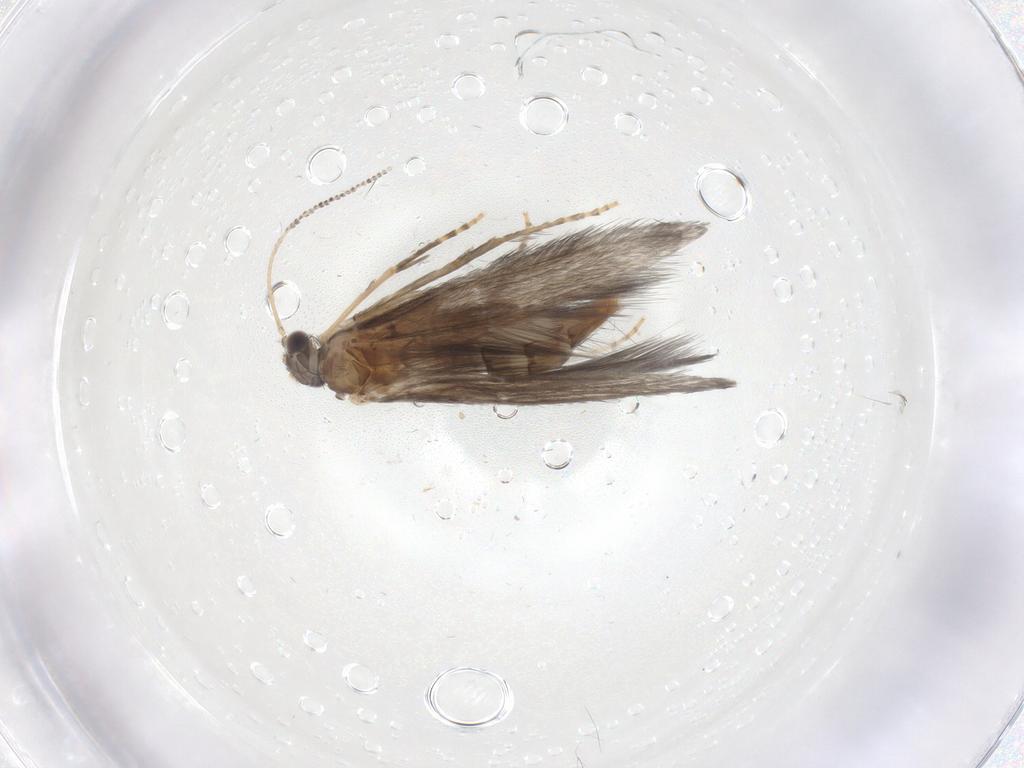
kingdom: Animalia
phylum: Arthropoda
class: Insecta
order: Trichoptera
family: Hydroptilidae
